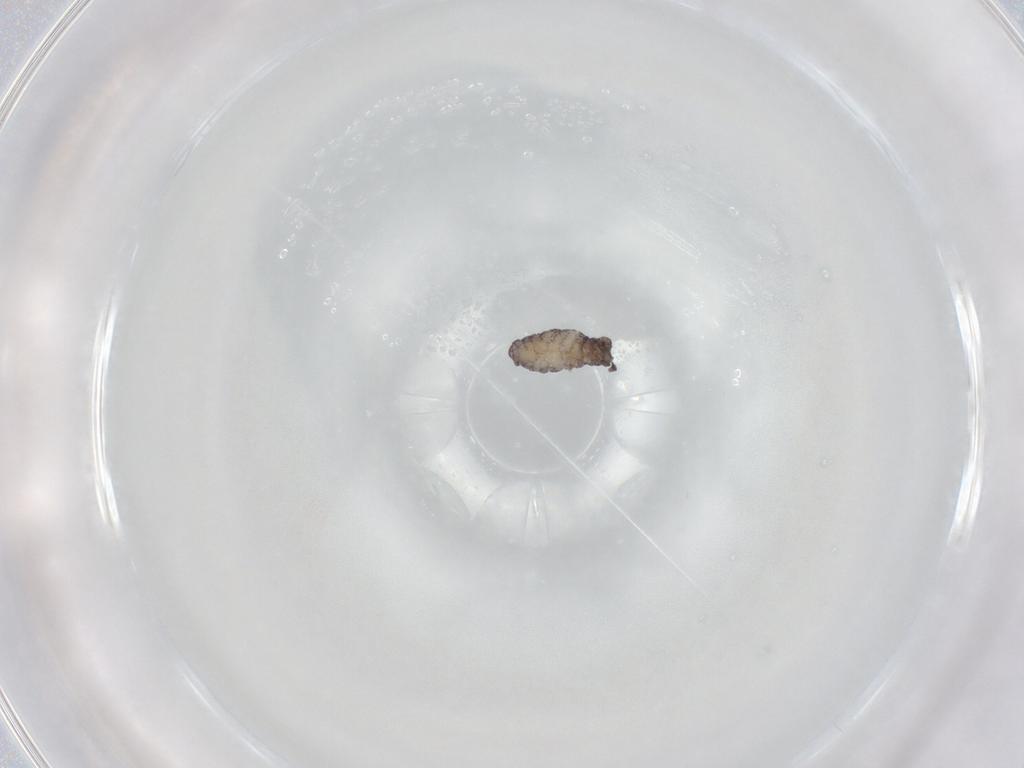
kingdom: Animalia
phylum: Arthropoda
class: Collembola
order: Poduromorpha
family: Hypogastruridae
